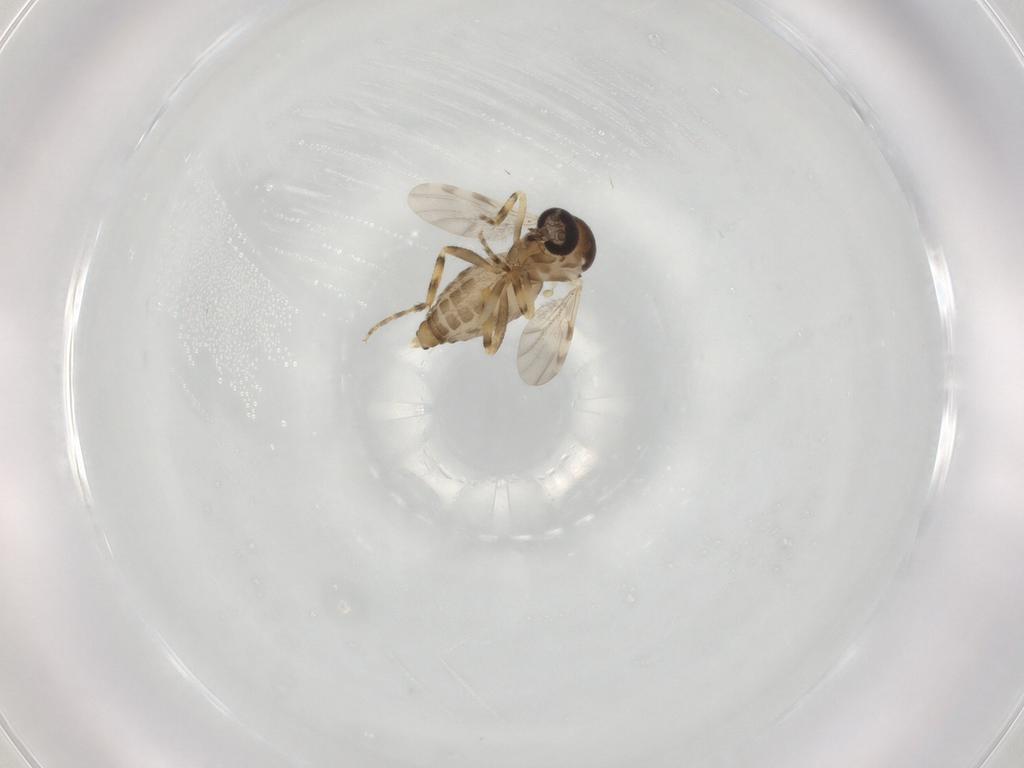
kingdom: Animalia
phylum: Arthropoda
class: Insecta
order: Diptera
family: Ceratopogonidae
